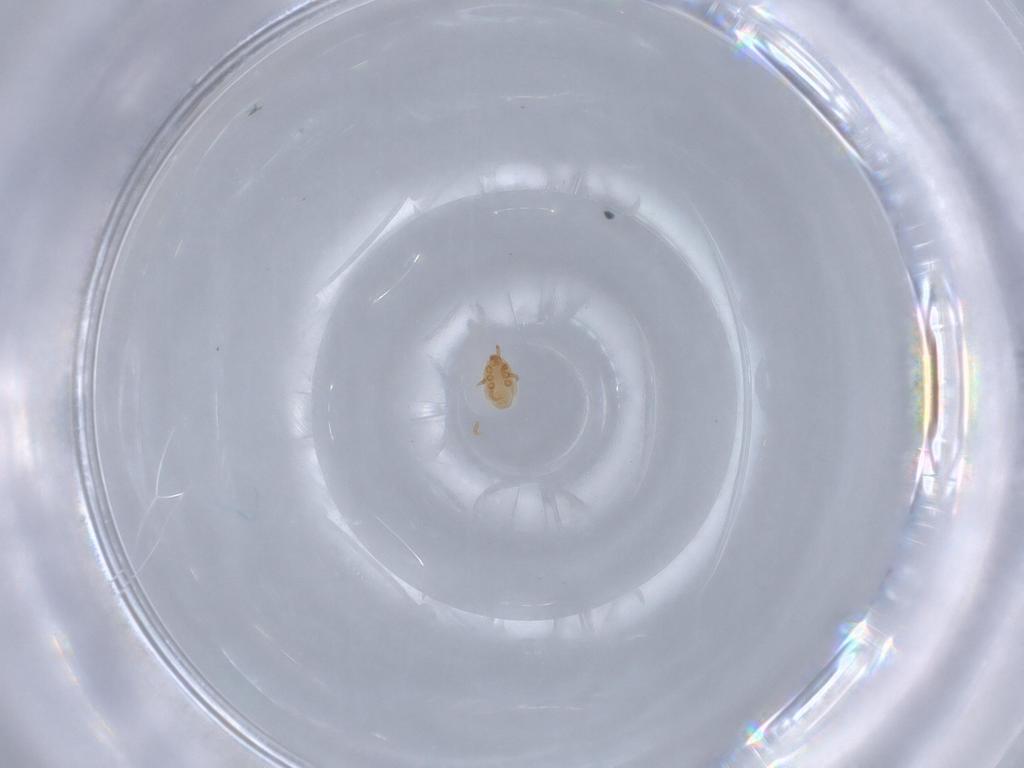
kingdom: Animalia
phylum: Arthropoda
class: Arachnida
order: Mesostigmata
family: Dinychidae
